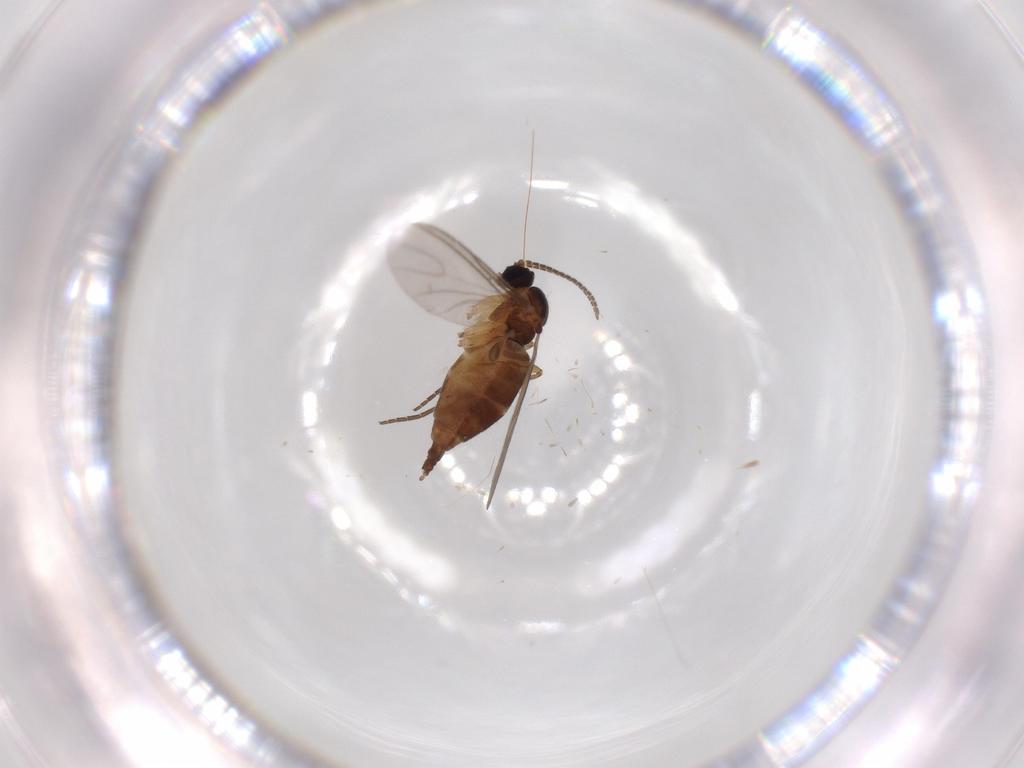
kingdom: Animalia
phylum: Arthropoda
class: Insecta
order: Diptera
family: Sciaridae
